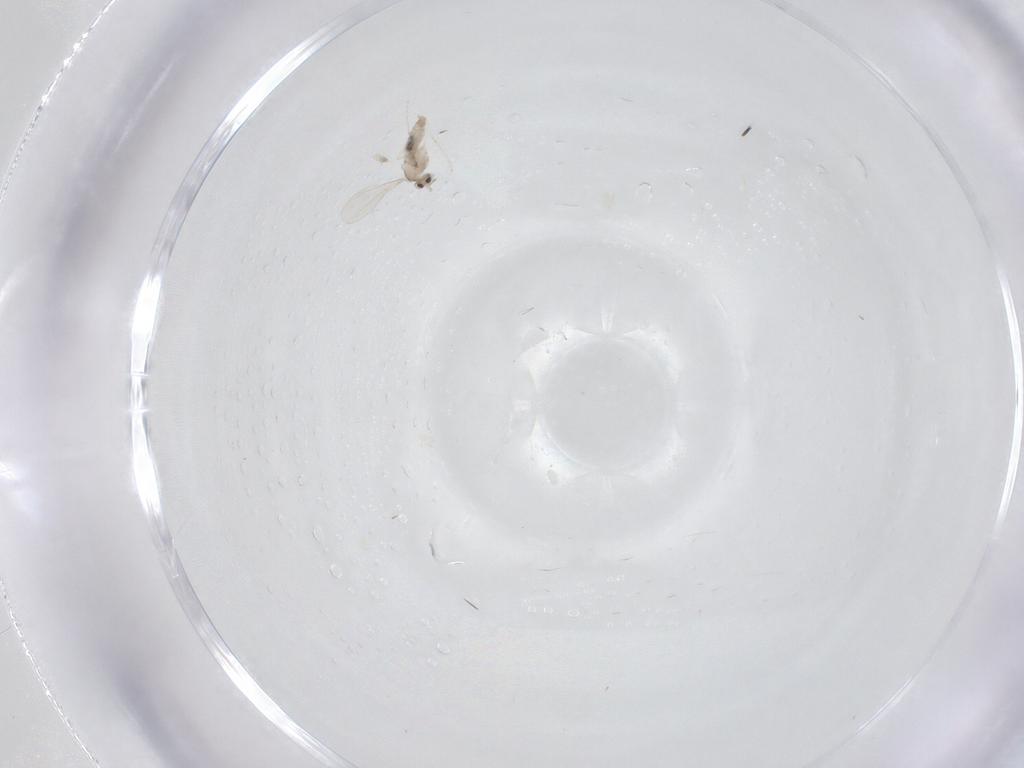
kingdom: Animalia
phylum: Arthropoda
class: Insecta
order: Diptera
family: Cecidomyiidae
